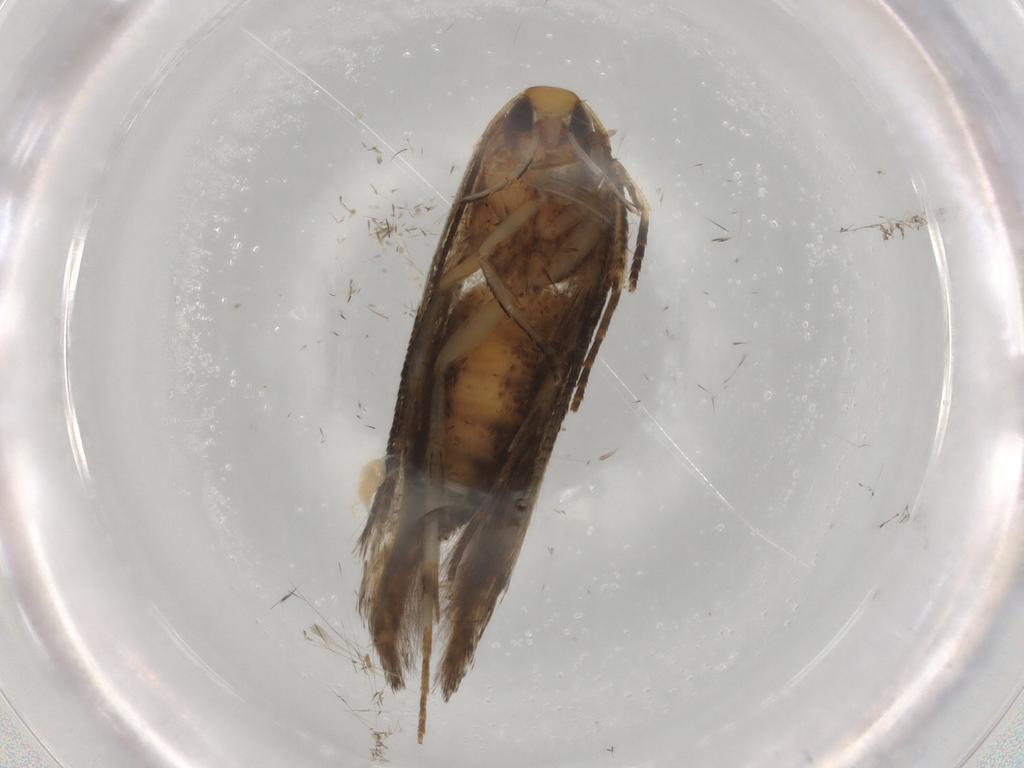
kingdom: Animalia
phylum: Arthropoda
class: Insecta
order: Lepidoptera
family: Cosmopterigidae
